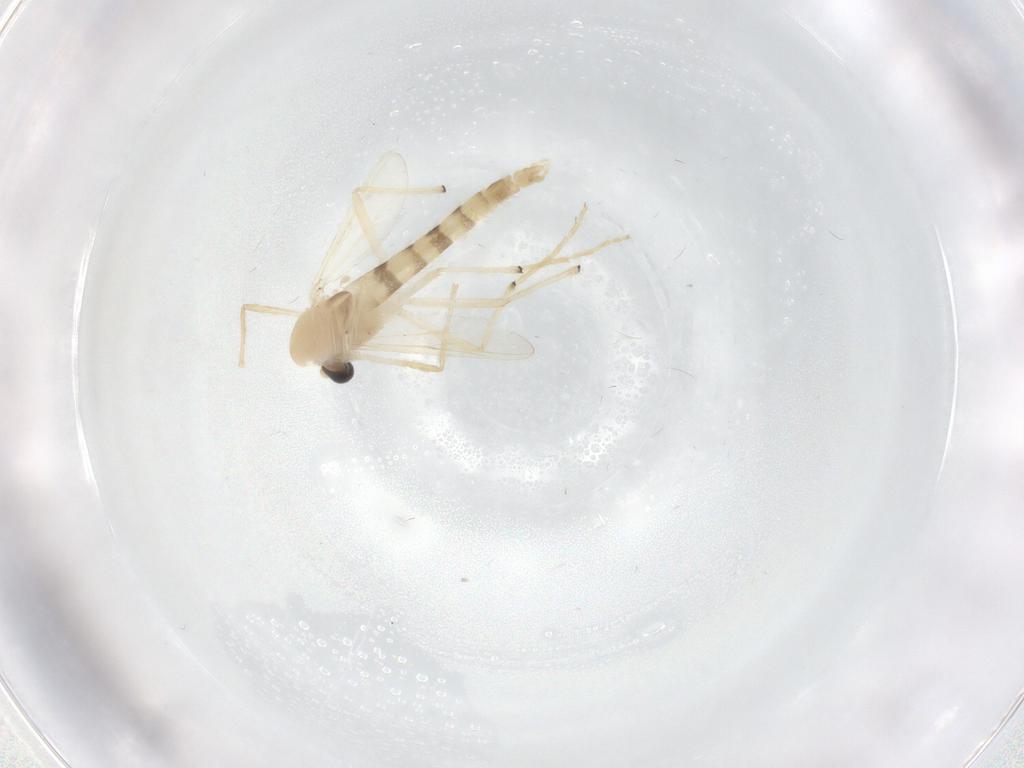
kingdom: Animalia
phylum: Arthropoda
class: Insecta
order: Diptera
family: Chironomidae
